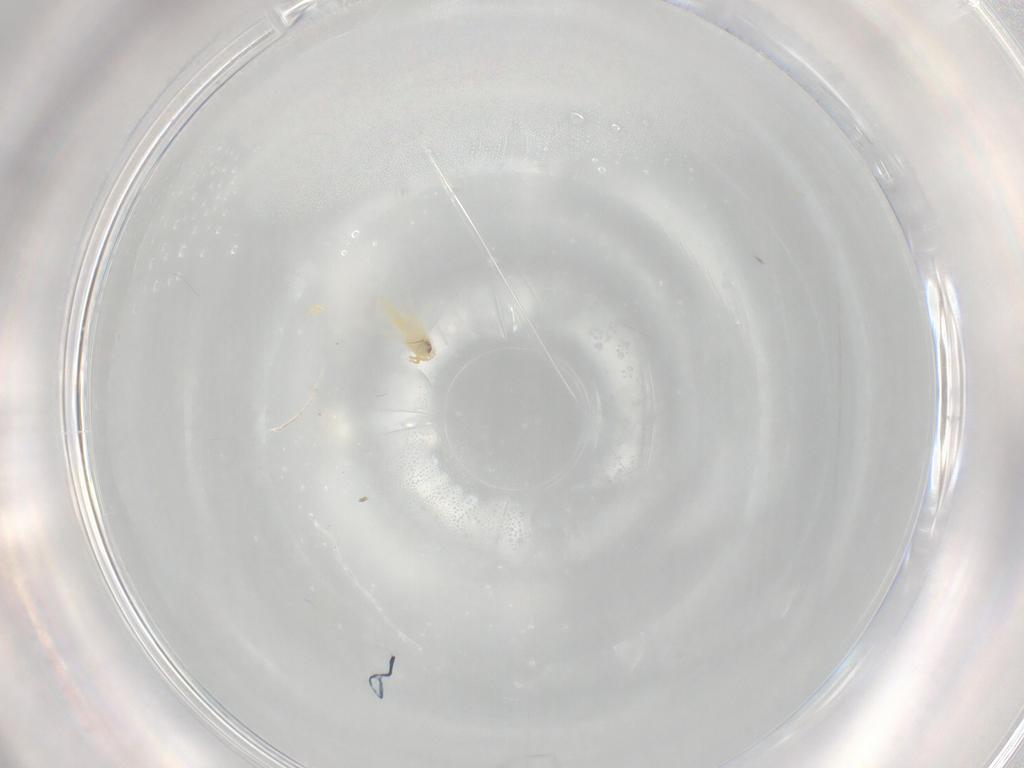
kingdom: Animalia
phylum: Arthropoda
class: Insecta
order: Hemiptera
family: Aleyrodidae
